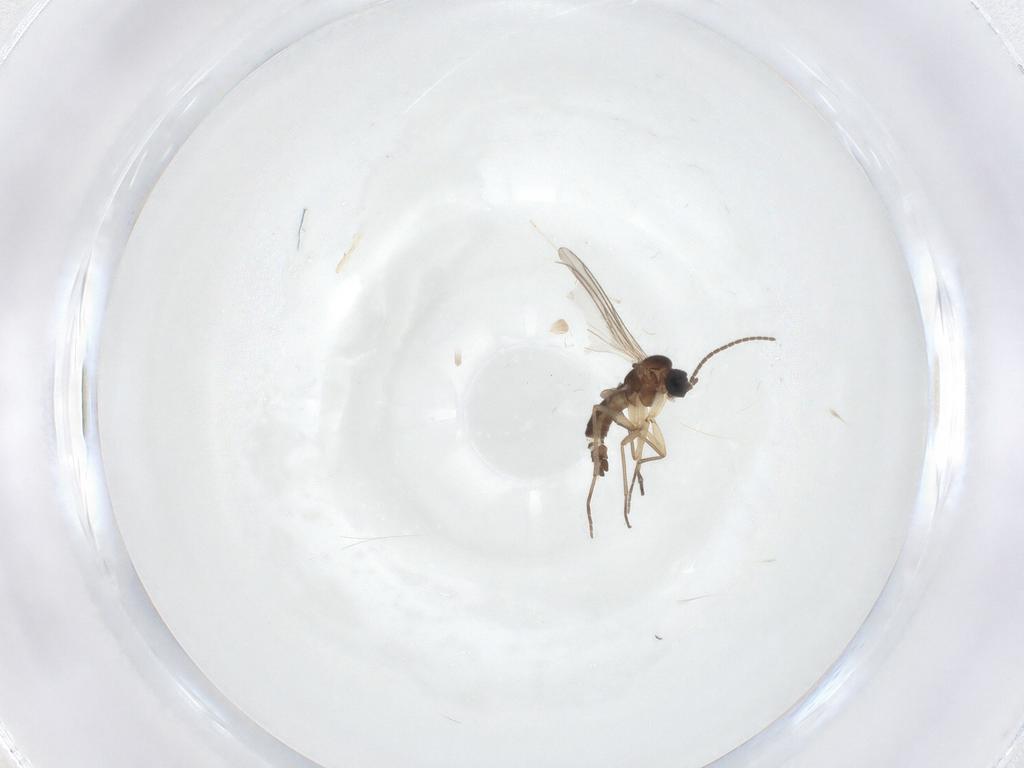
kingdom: Animalia
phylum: Arthropoda
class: Insecta
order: Diptera
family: Sciaridae
